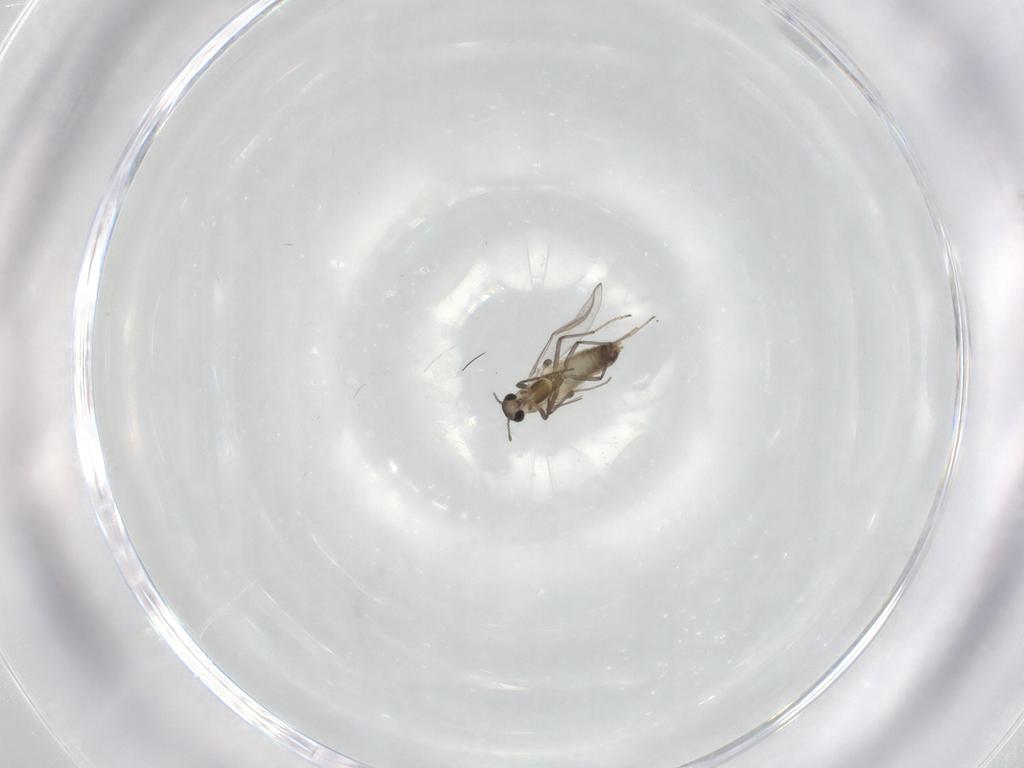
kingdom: Animalia
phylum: Arthropoda
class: Insecta
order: Diptera
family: Chironomidae
